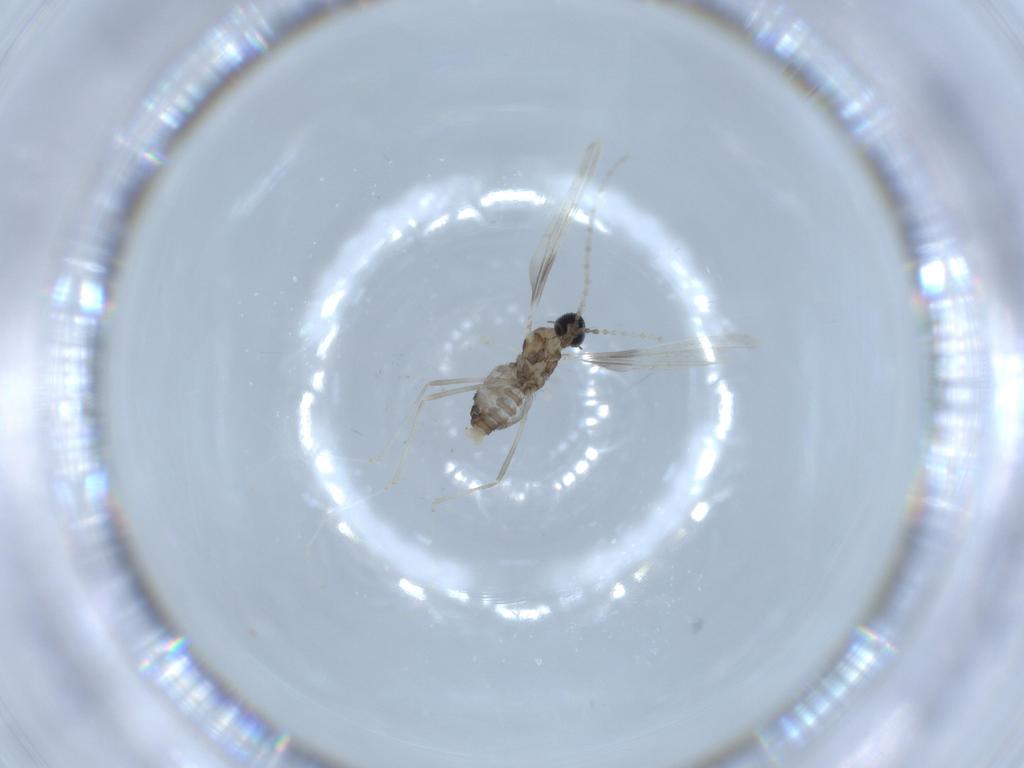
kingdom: Animalia
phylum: Arthropoda
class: Insecta
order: Diptera
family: Cecidomyiidae
